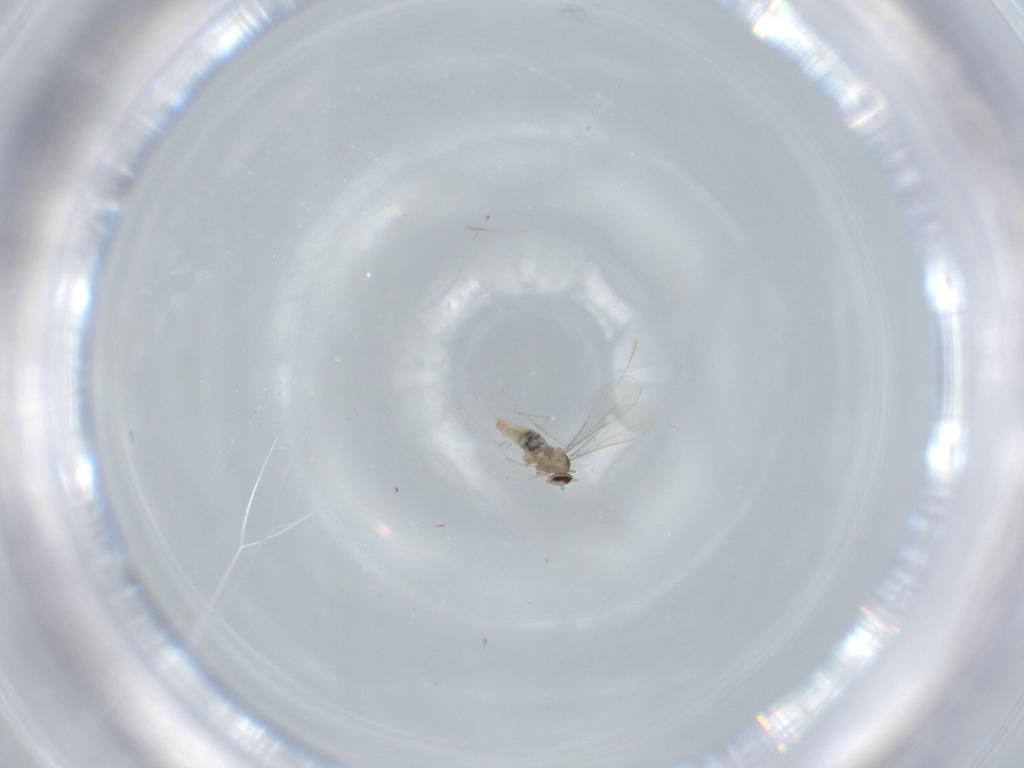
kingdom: Animalia
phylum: Arthropoda
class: Insecta
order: Diptera
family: Cecidomyiidae
